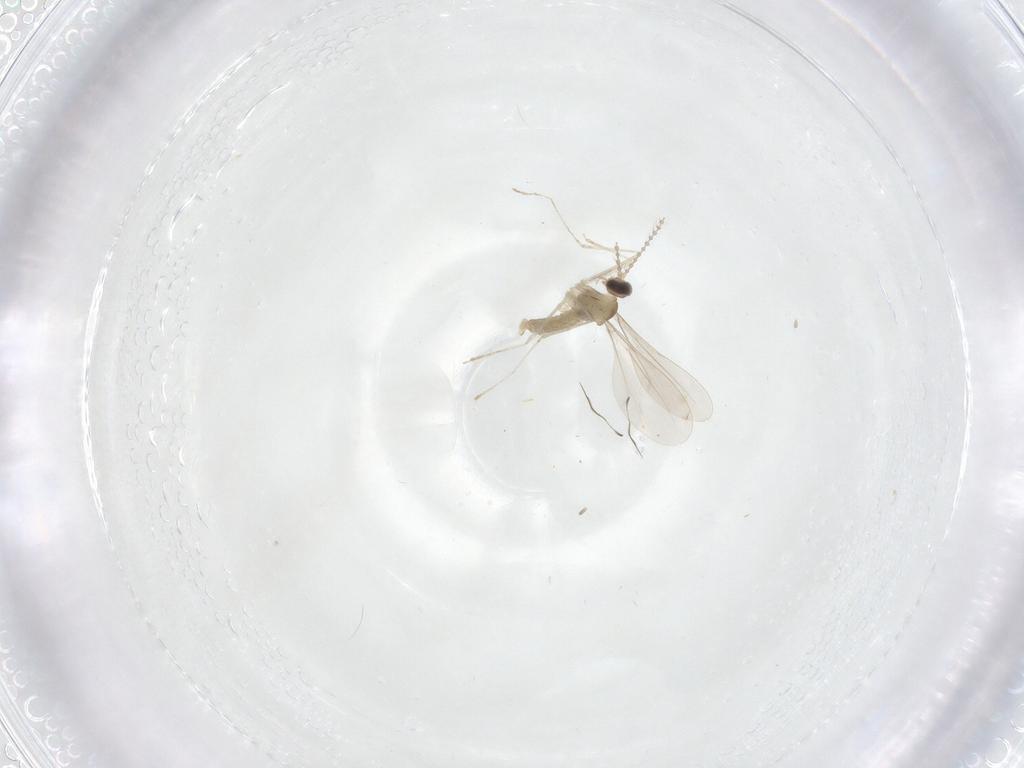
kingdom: Animalia
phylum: Arthropoda
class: Insecta
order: Diptera
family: Cecidomyiidae
